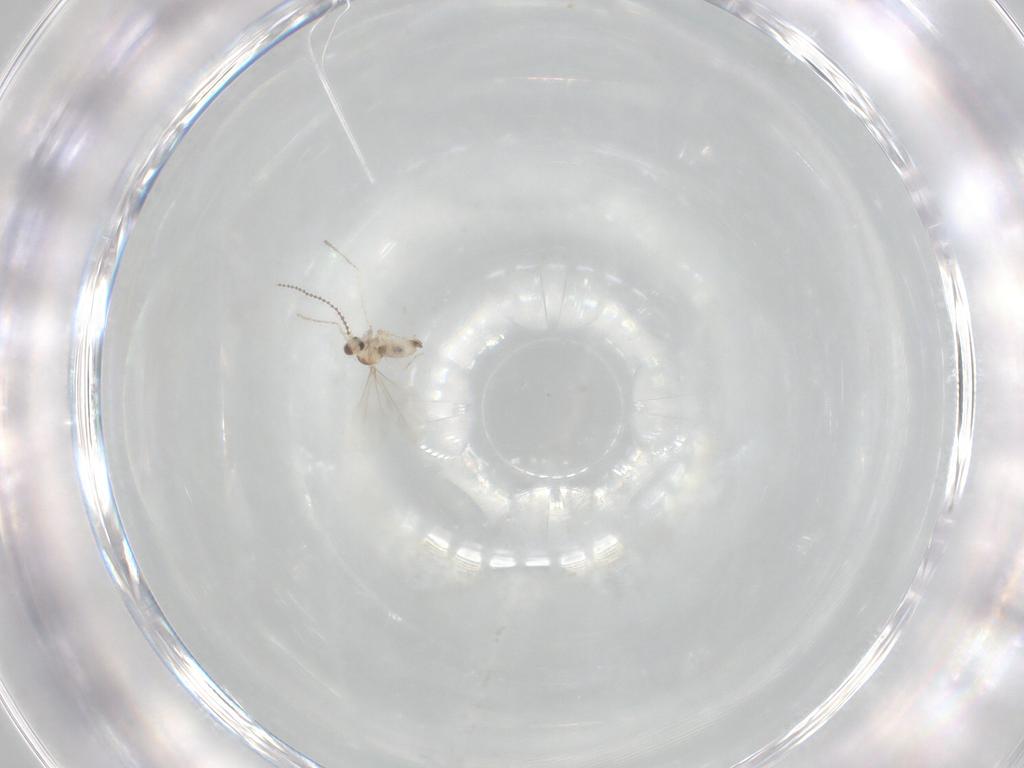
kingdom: Animalia
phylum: Arthropoda
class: Insecta
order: Diptera
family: Cecidomyiidae
